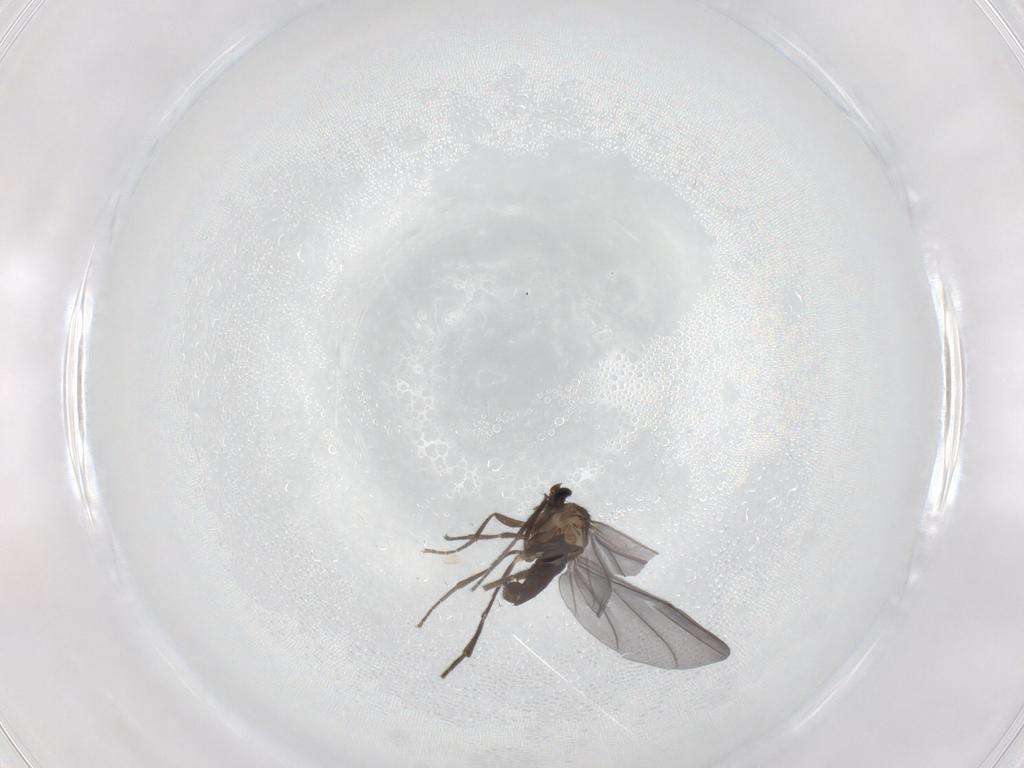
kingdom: Animalia
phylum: Arthropoda
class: Insecta
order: Diptera
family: Phoridae
